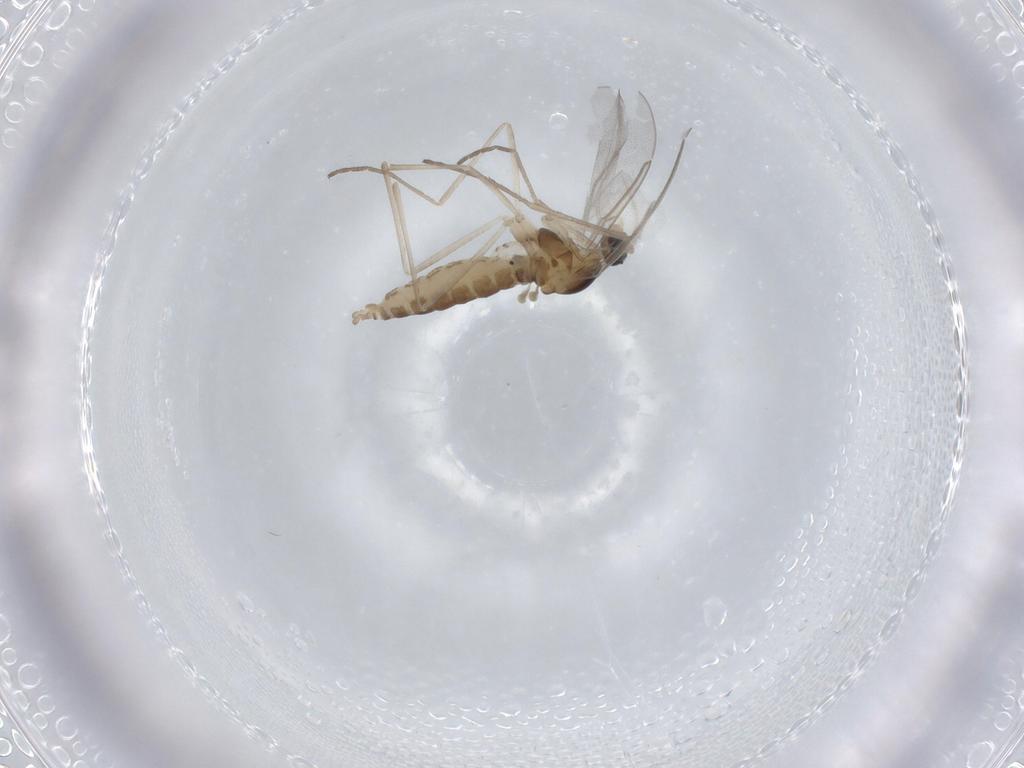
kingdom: Animalia
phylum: Arthropoda
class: Insecta
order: Diptera
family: Cecidomyiidae
